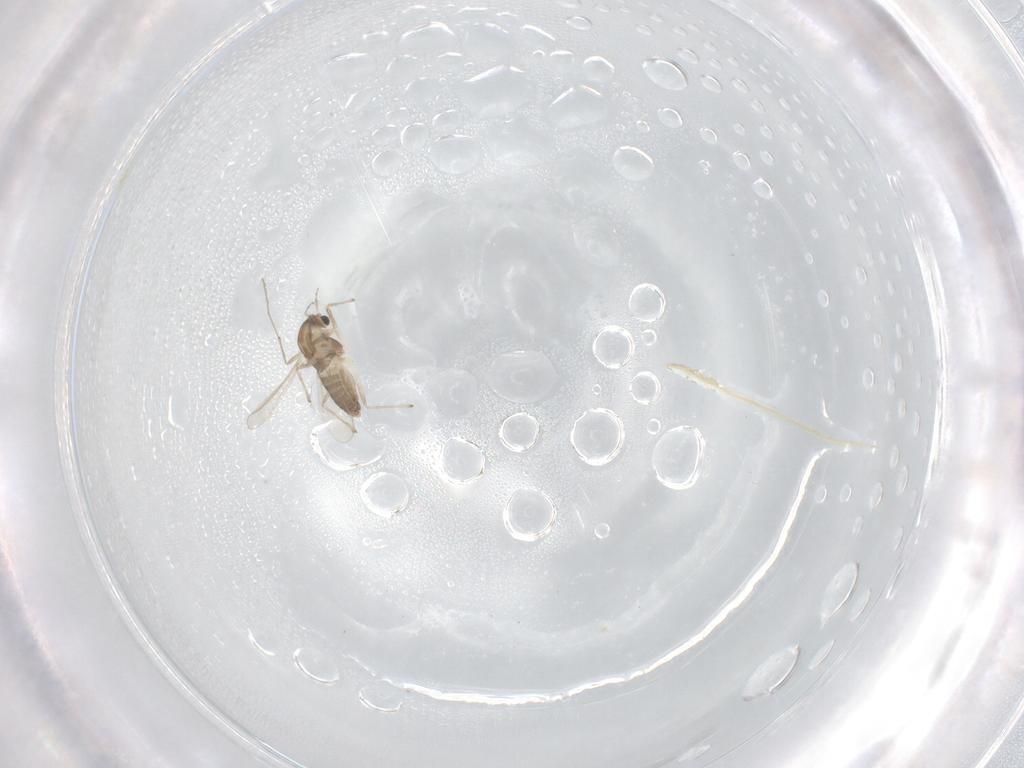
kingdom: Animalia
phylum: Arthropoda
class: Insecta
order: Diptera
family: Chironomidae
